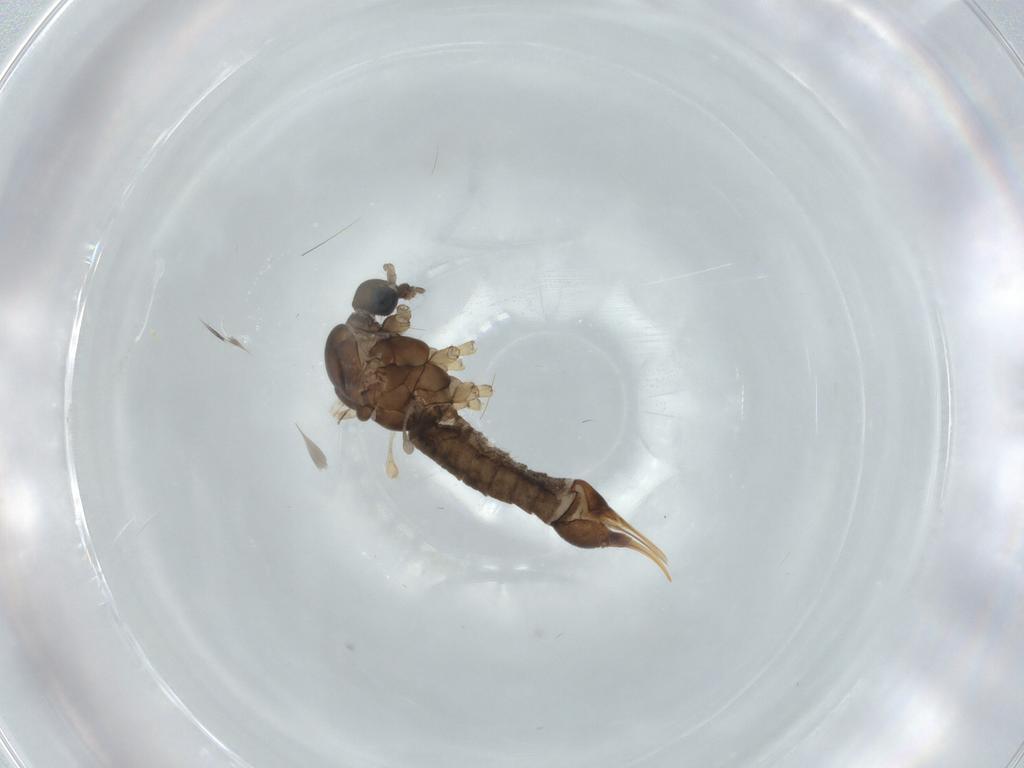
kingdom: Animalia
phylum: Arthropoda
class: Insecta
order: Diptera
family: Limoniidae
